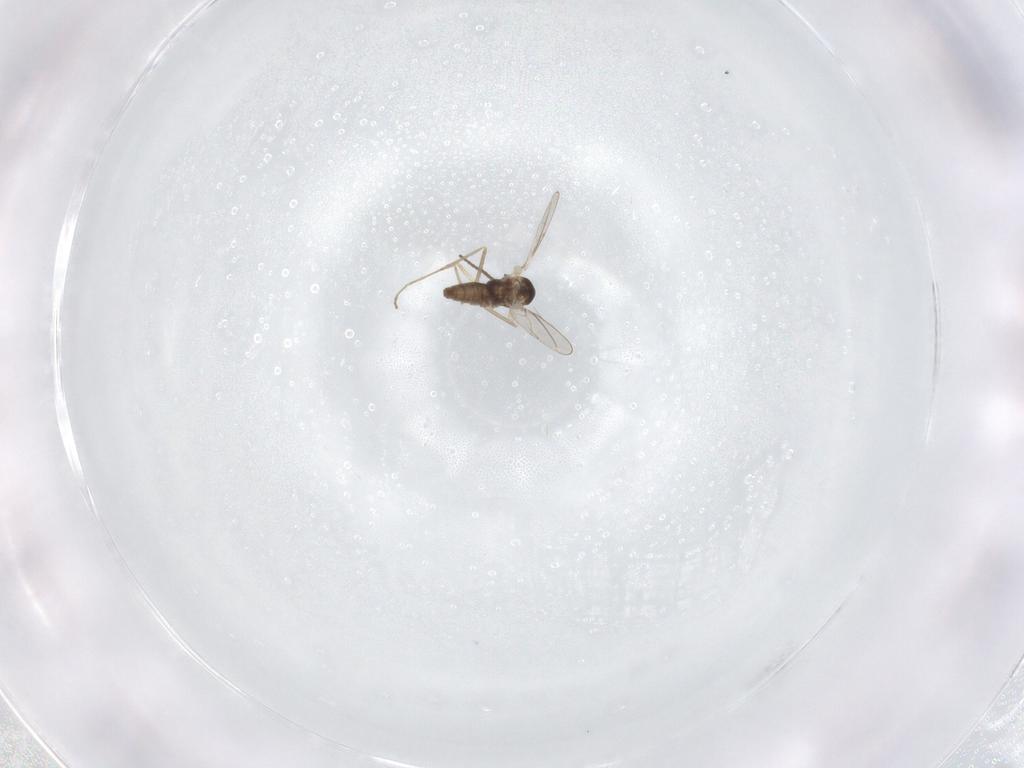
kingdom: Animalia
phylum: Arthropoda
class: Insecta
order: Diptera
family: Cecidomyiidae
